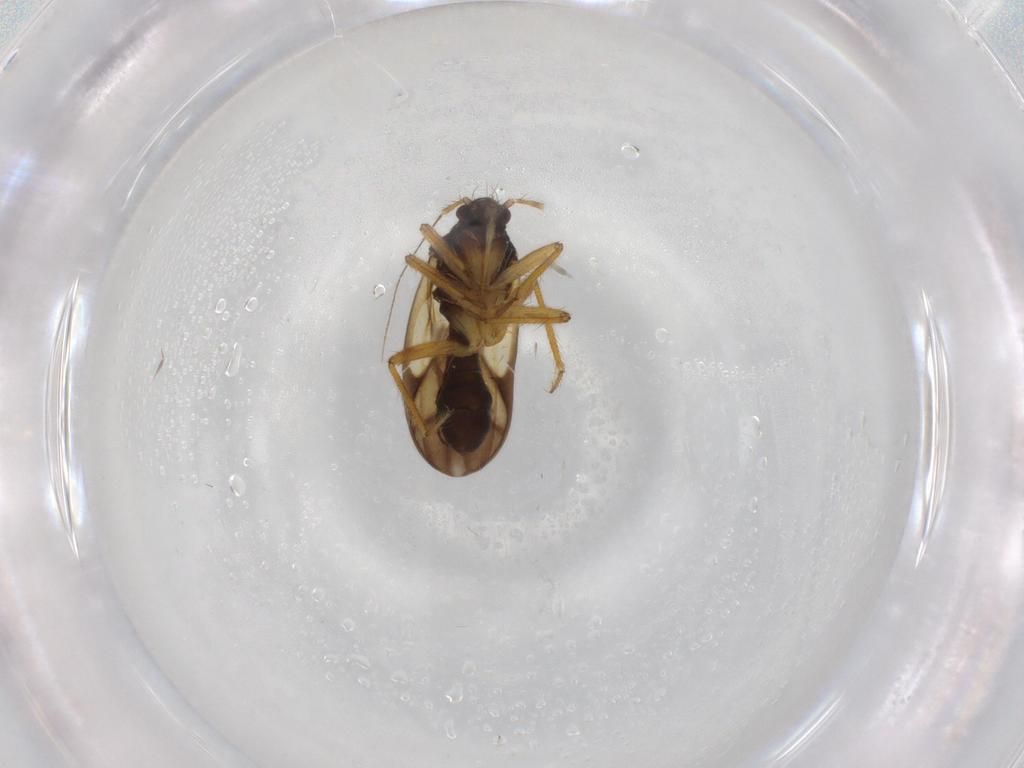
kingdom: Animalia
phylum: Arthropoda
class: Insecta
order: Hemiptera
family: Ceratocombidae
